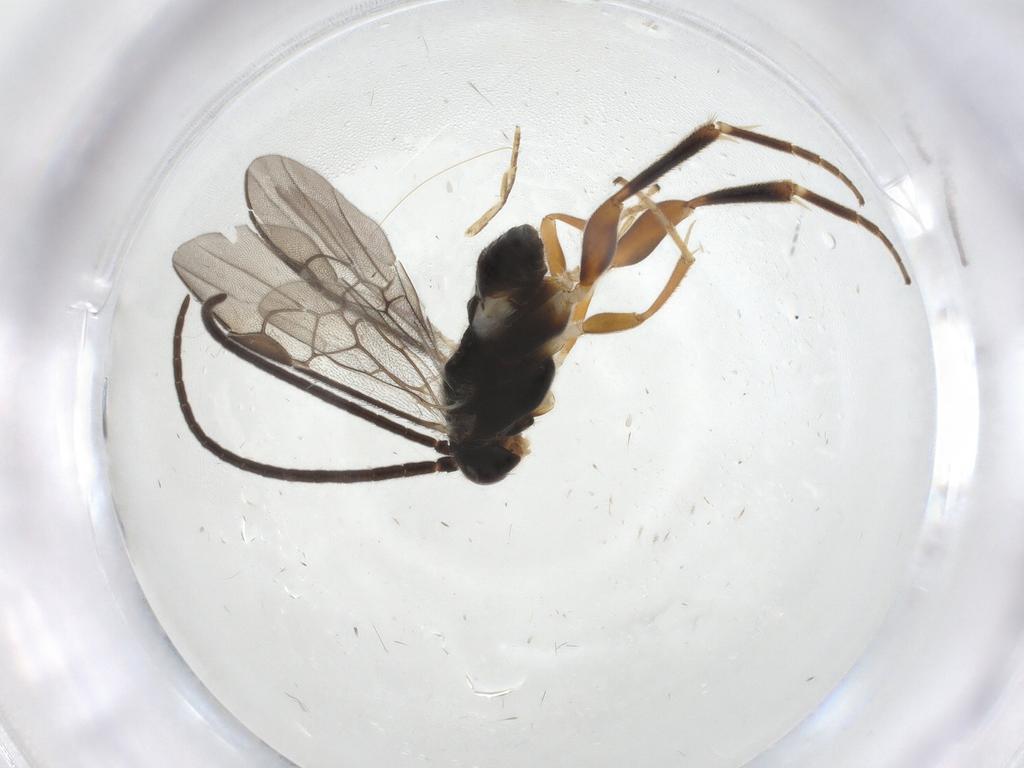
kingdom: Animalia
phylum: Arthropoda
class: Insecta
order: Hymenoptera
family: Braconidae
